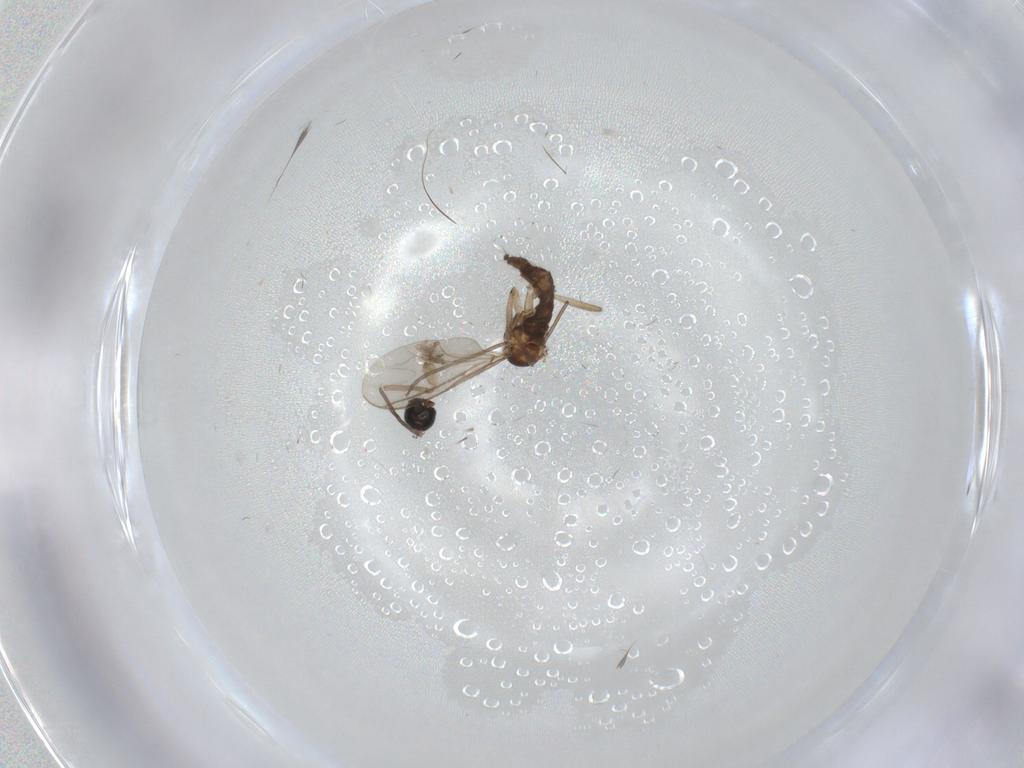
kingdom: Animalia
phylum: Arthropoda
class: Insecta
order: Diptera
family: Sciaridae
